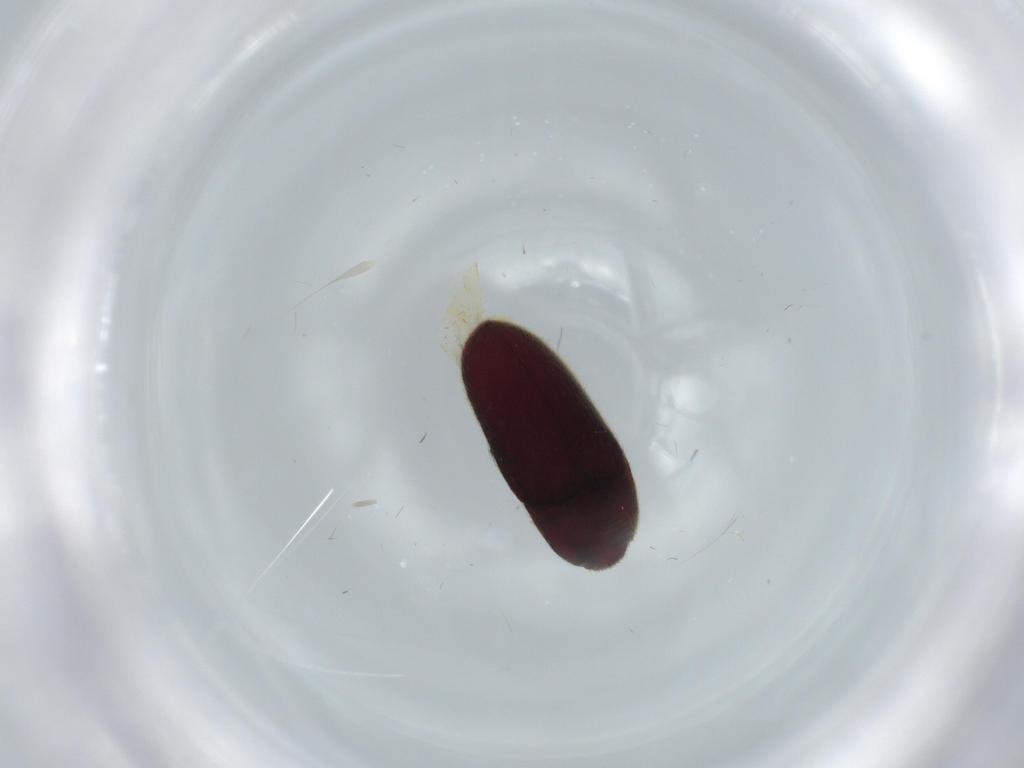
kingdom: Animalia
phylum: Arthropoda
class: Insecta
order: Coleoptera
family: Throscidae
